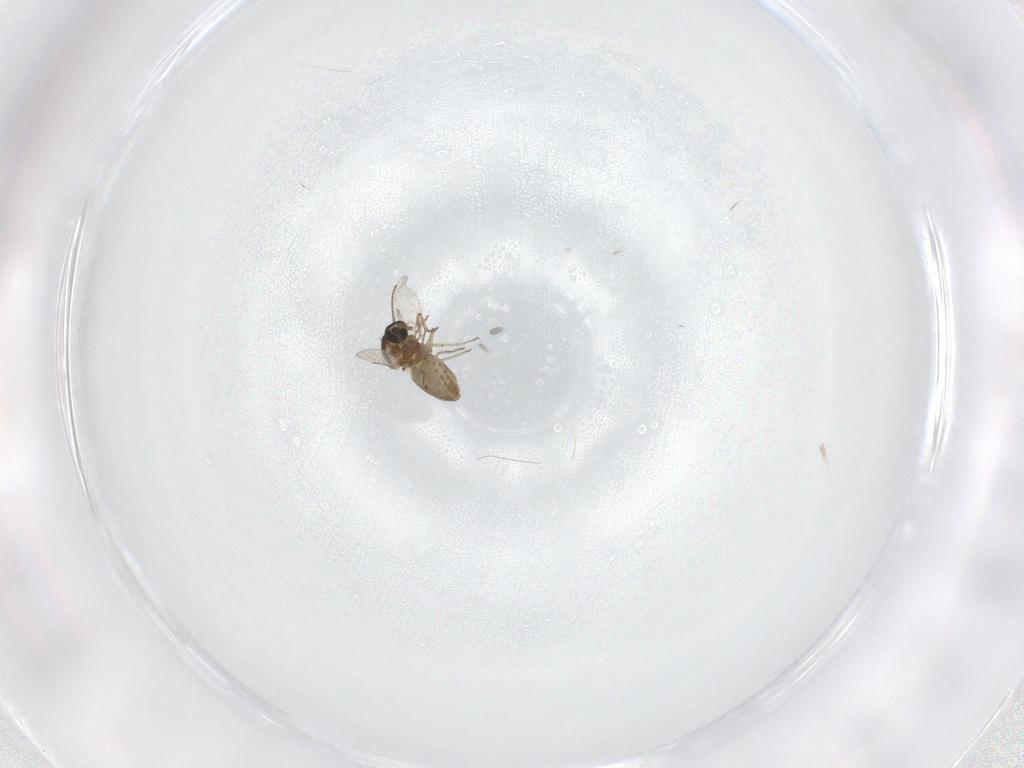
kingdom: Animalia
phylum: Arthropoda
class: Insecta
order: Diptera
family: Ceratopogonidae
